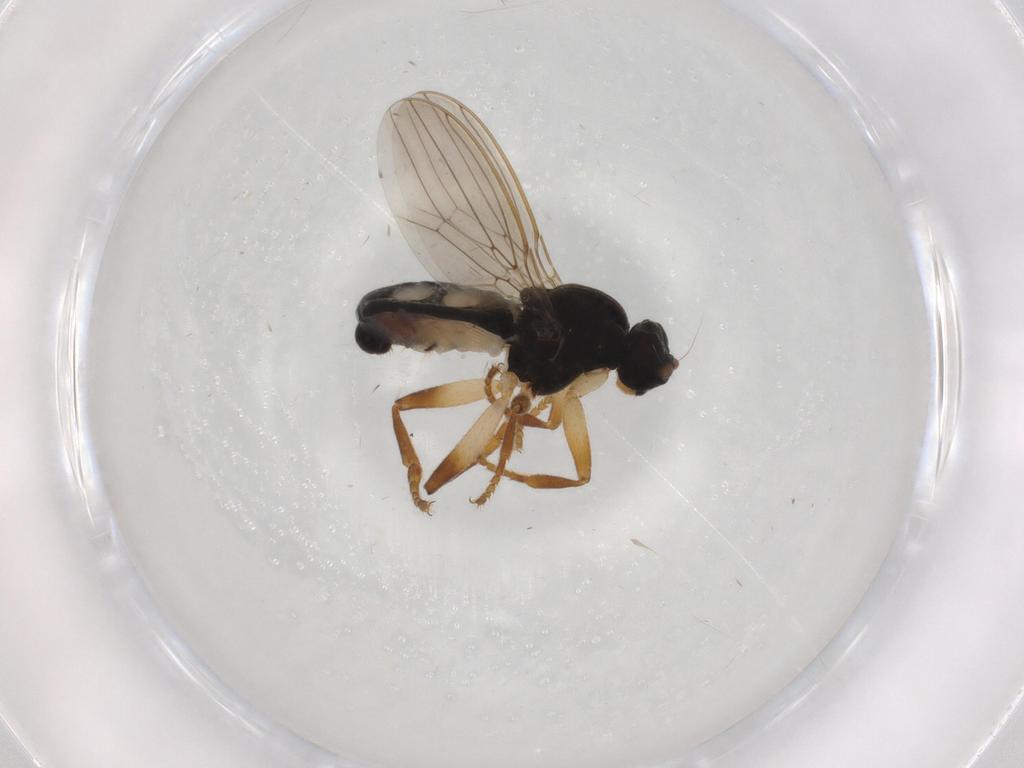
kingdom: Animalia
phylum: Arthropoda
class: Insecta
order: Diptera
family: Sphaeroceridae
